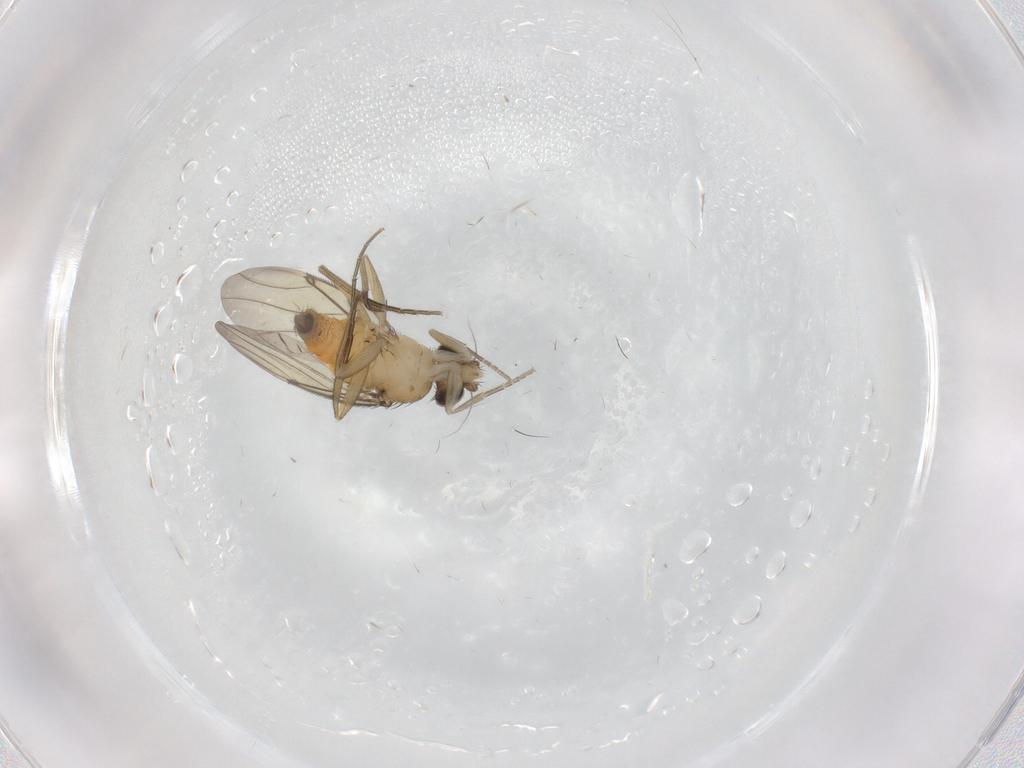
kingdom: Animalia
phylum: Arthropoda
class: Insecta
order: Diptera
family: Phoridae
